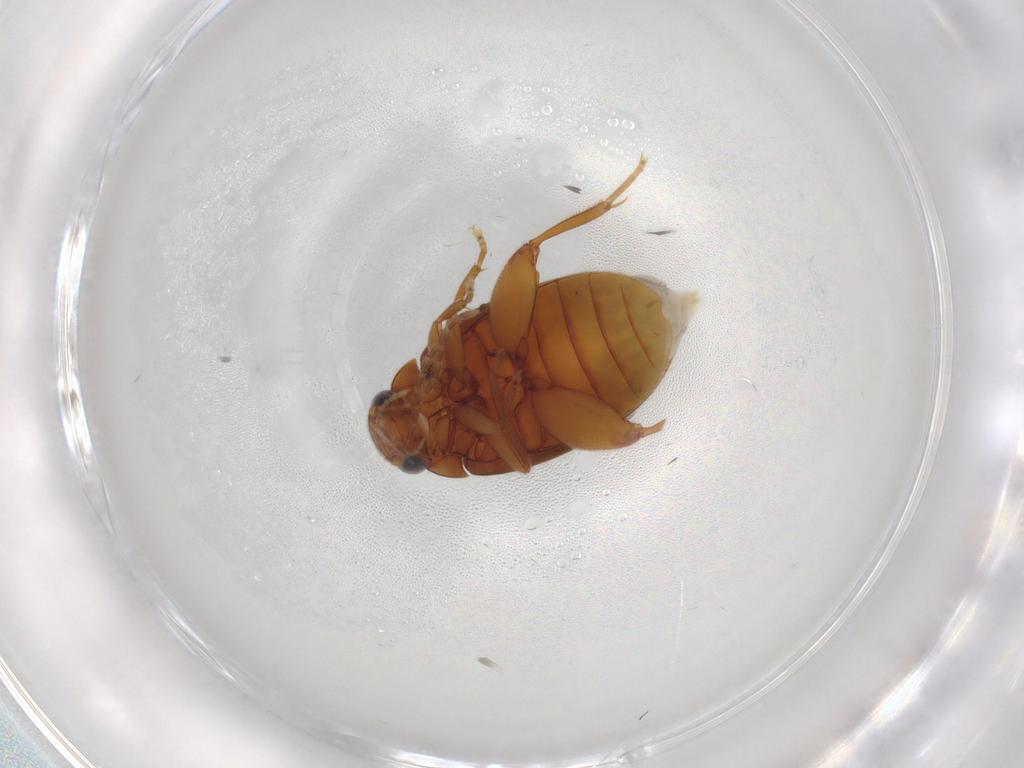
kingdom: Animalia
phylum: Arthropoda
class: Insecta
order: Coleoptera
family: Scirtidae
